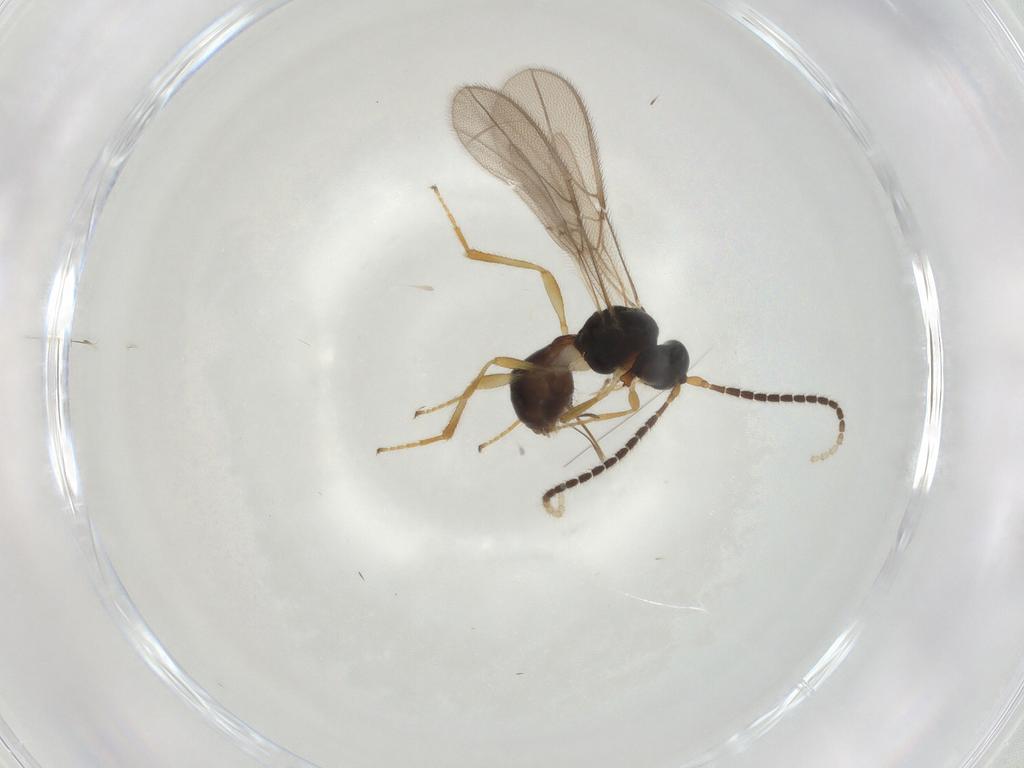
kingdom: Animalia
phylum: Arthropoda
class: Insecta
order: Hymenoptera
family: Braconidae
